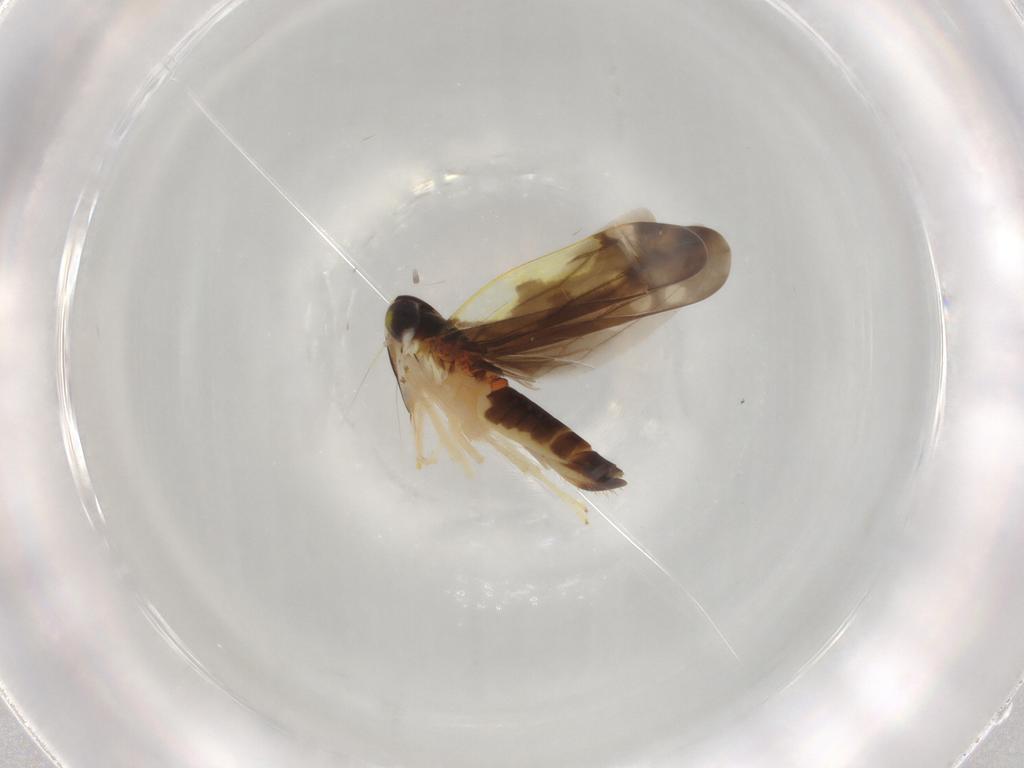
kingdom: Animalia
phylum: Arthropoda
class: Insecta
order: Hemiptera
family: Cicadellidae
